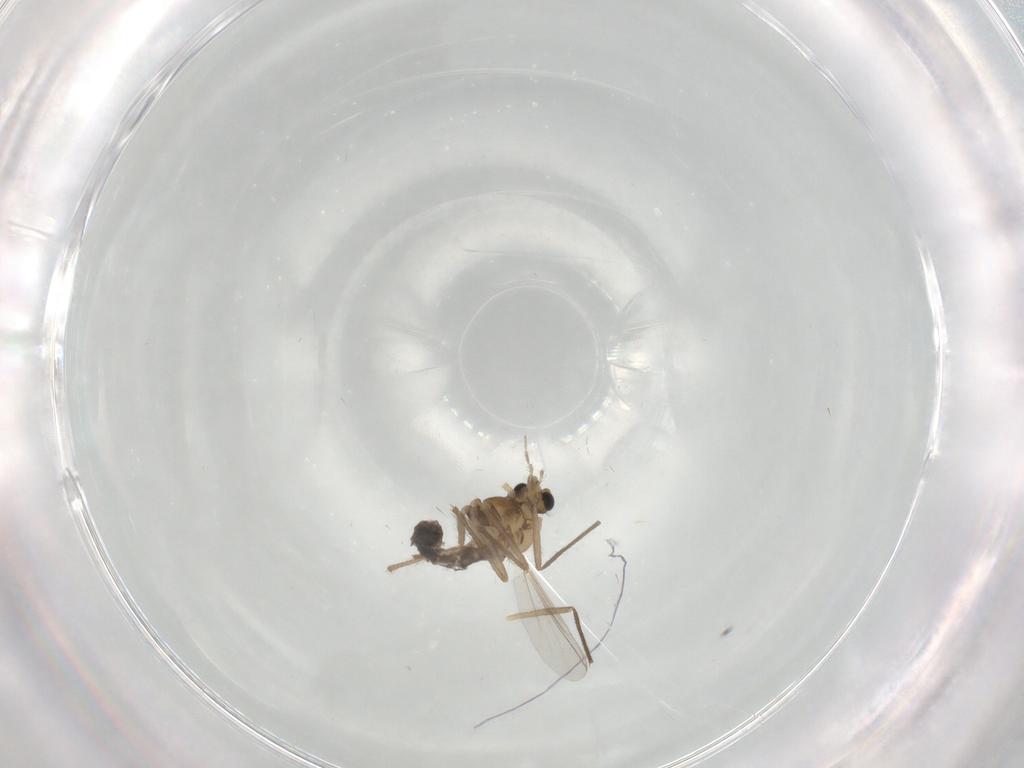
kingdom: Animalia
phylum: Arthropoda
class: Insecta
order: Diptera
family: Chironomidae
